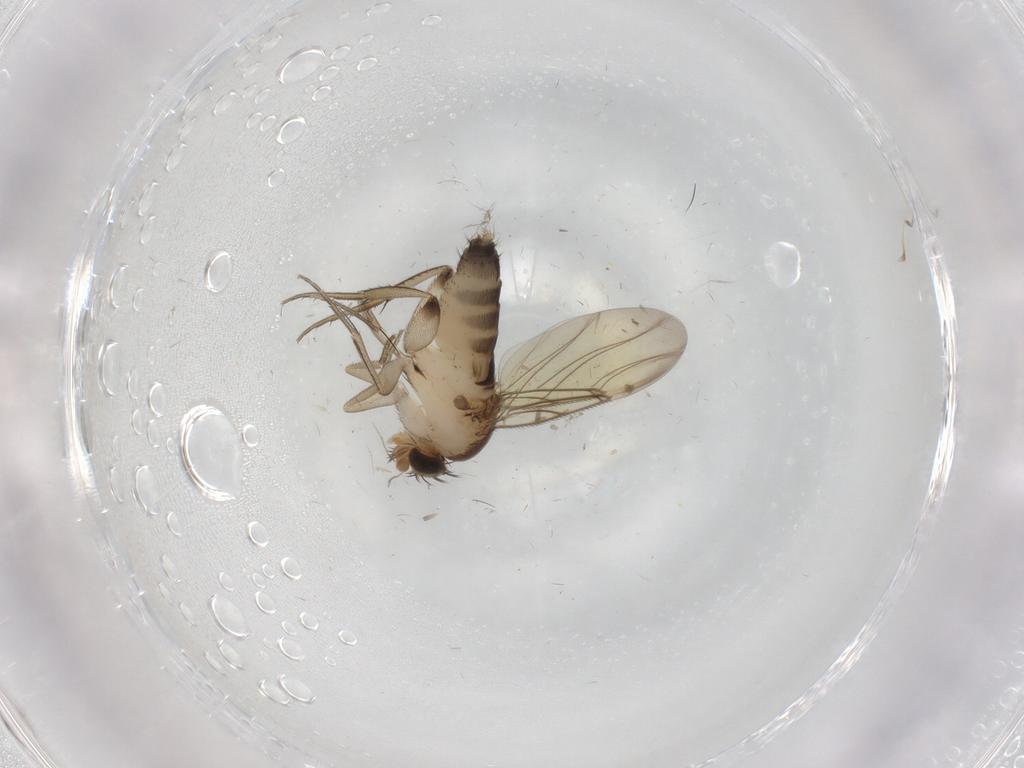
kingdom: Animalia
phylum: Arthropoda
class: Insecta
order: Diptera
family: Phoridae
